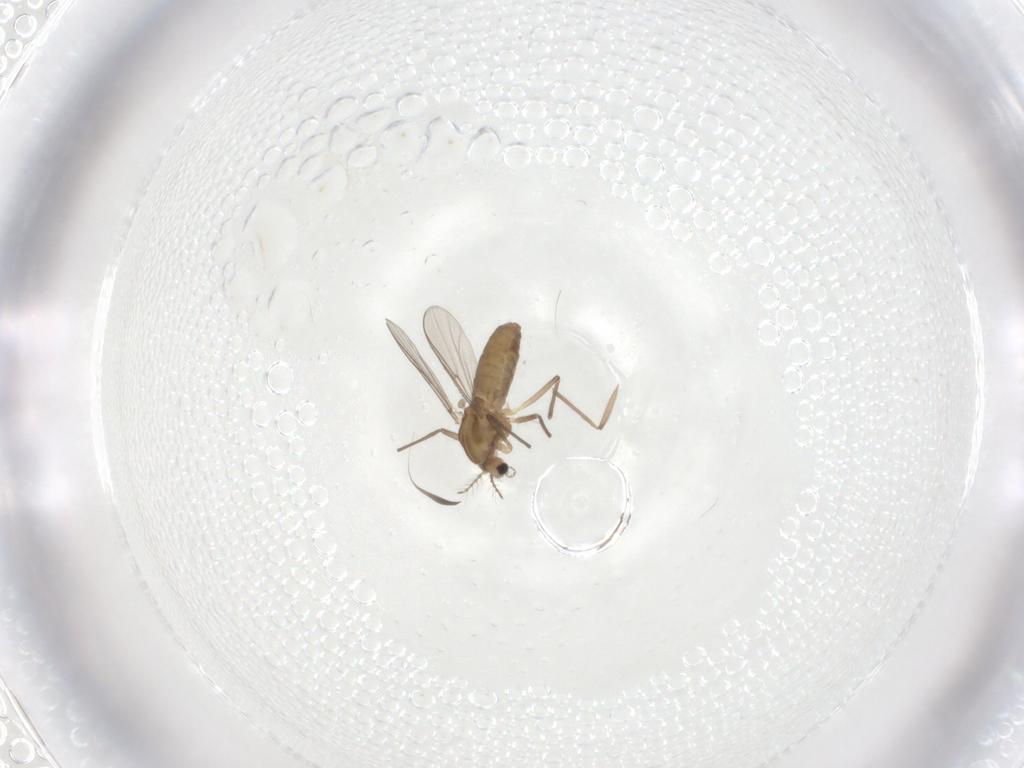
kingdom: Animalia
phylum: Arthropoda
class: Insecta
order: Diptera
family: Chironomidae
